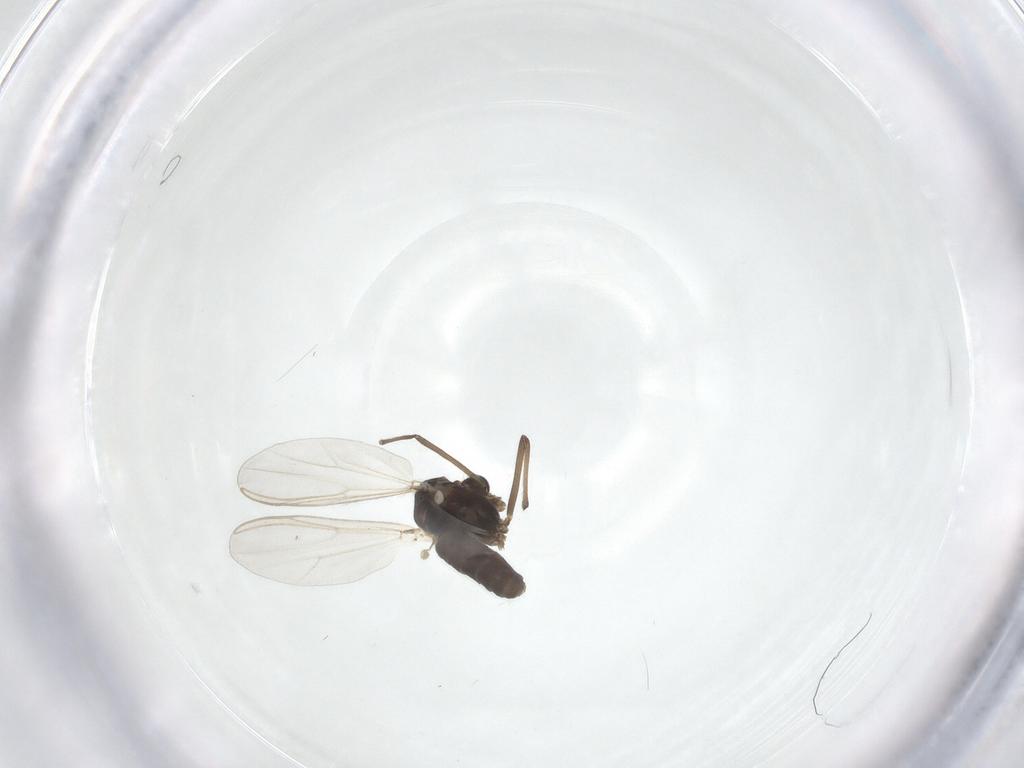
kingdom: Animalia
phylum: Arthropoda
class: Insecta
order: Diptera
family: Chironomidae
